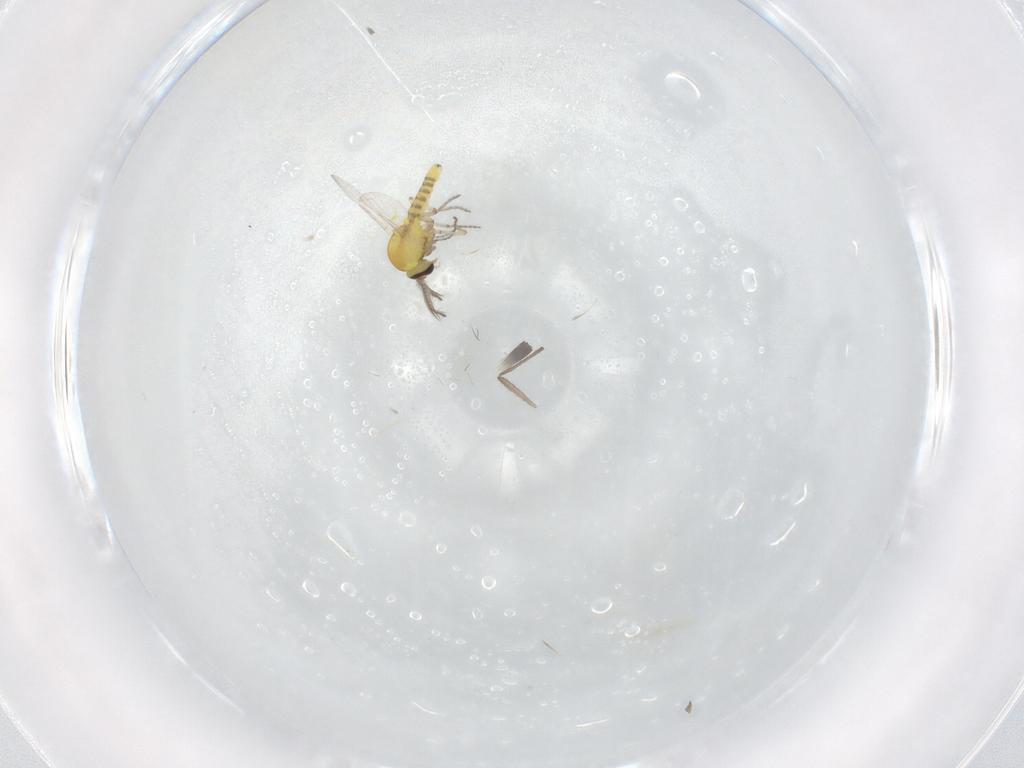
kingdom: Animalia
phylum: Arthropoda
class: Insecta
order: Diptera
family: Ceratopogonidae
